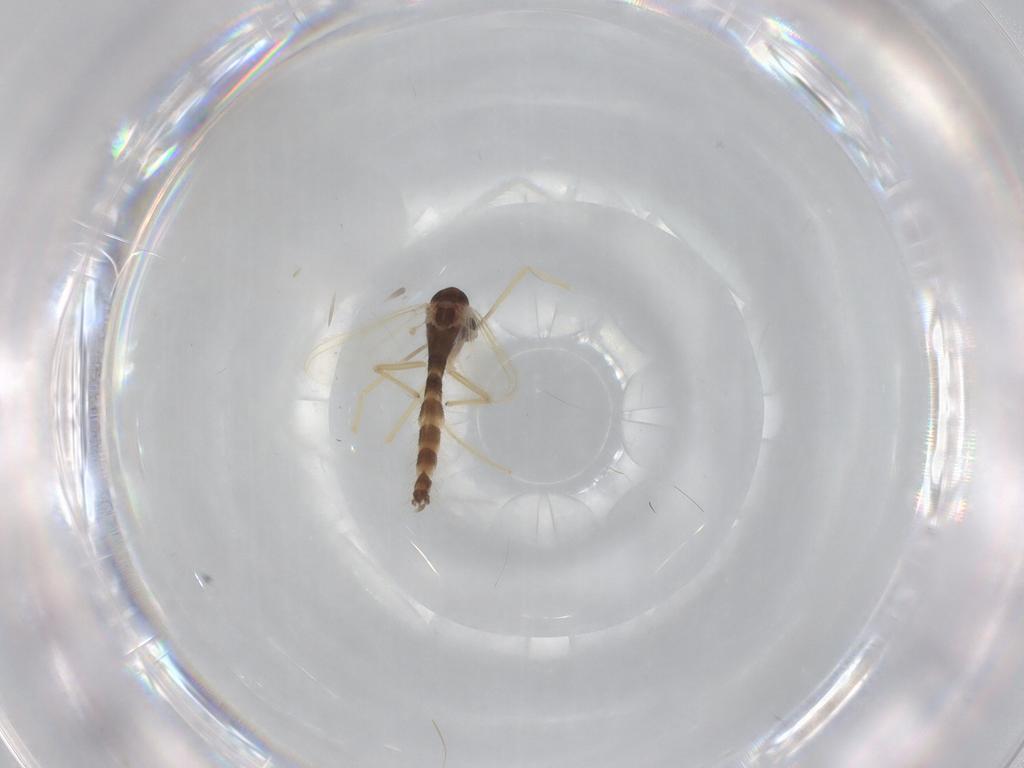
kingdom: Animalia
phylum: Arthropoda
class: Insecta
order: Diptera
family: Chironomidae
